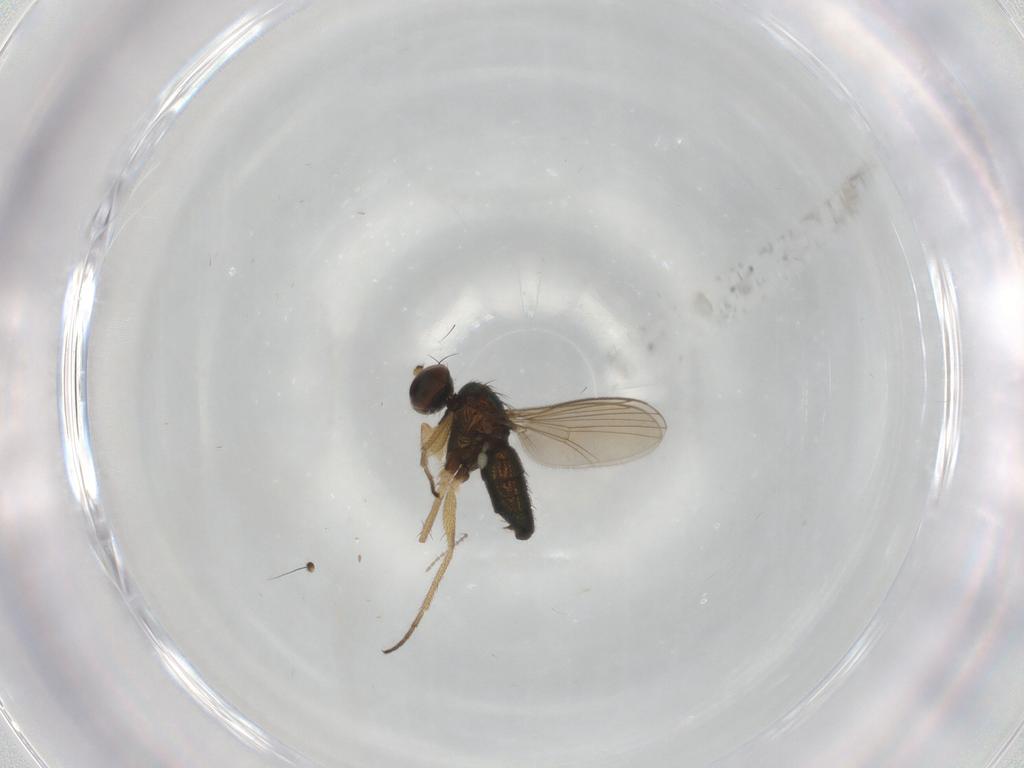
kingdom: Animalia
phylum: Arthropoda
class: Insecta
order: Diptera
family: Dolichopodidae
